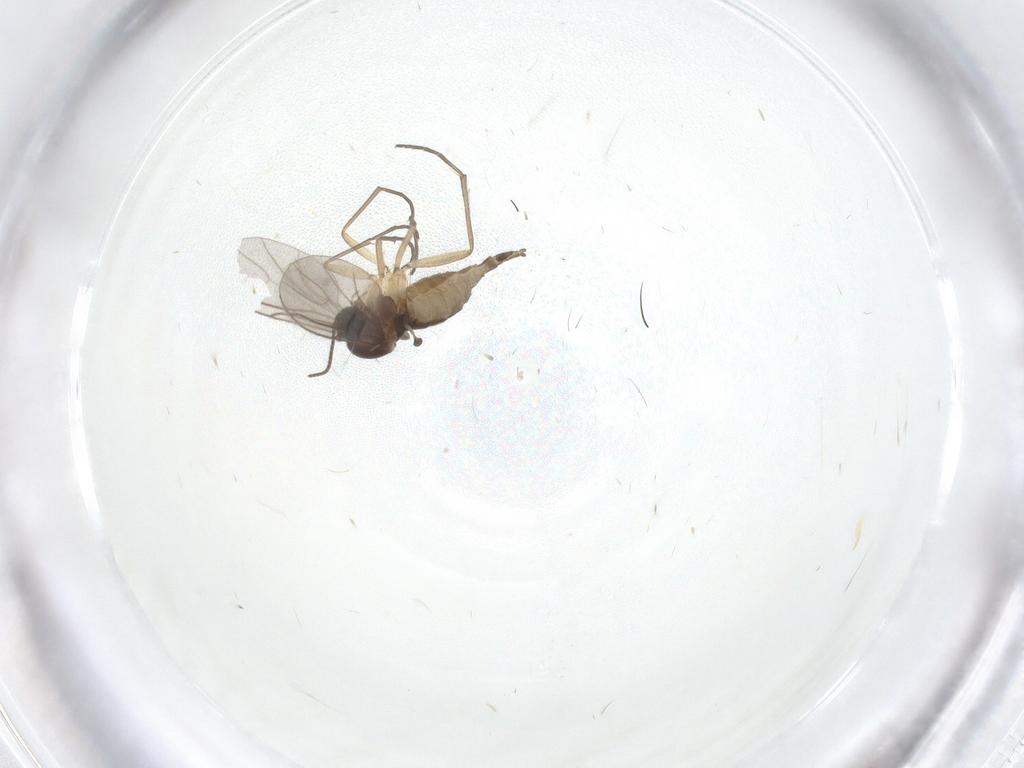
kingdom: Animalia
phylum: Arthropoda
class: Insecta
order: Diptera
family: Sciaridae
